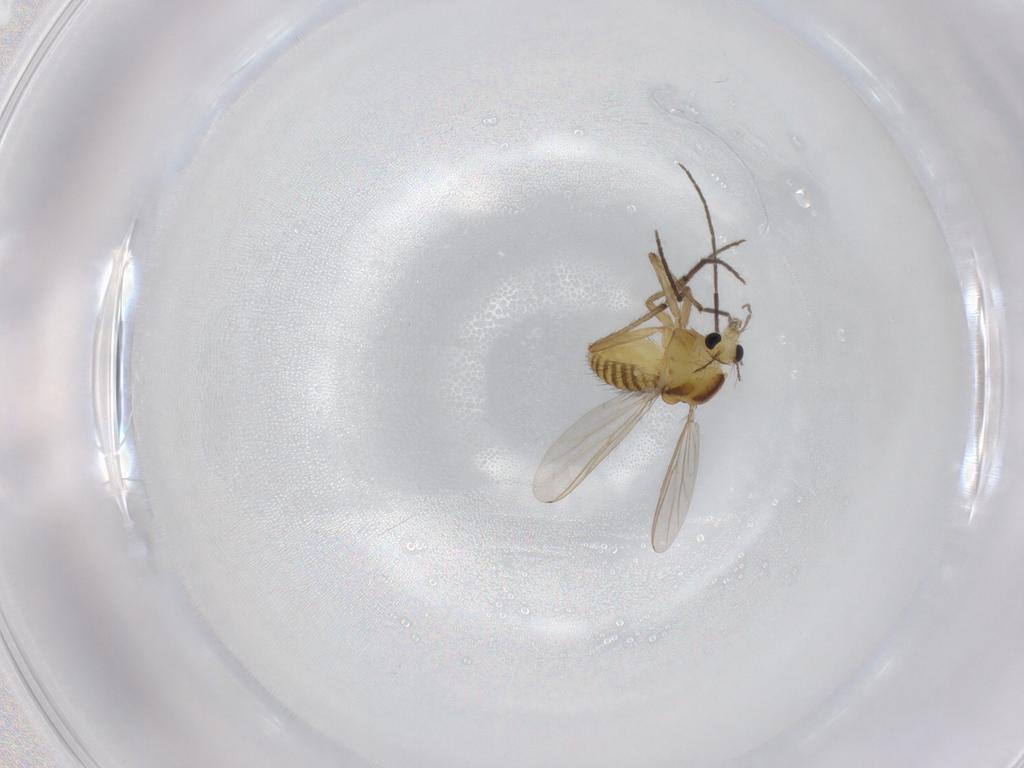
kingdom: Animalia
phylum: Arthropoda
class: Insecta
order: Diptera
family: Chironomidae
